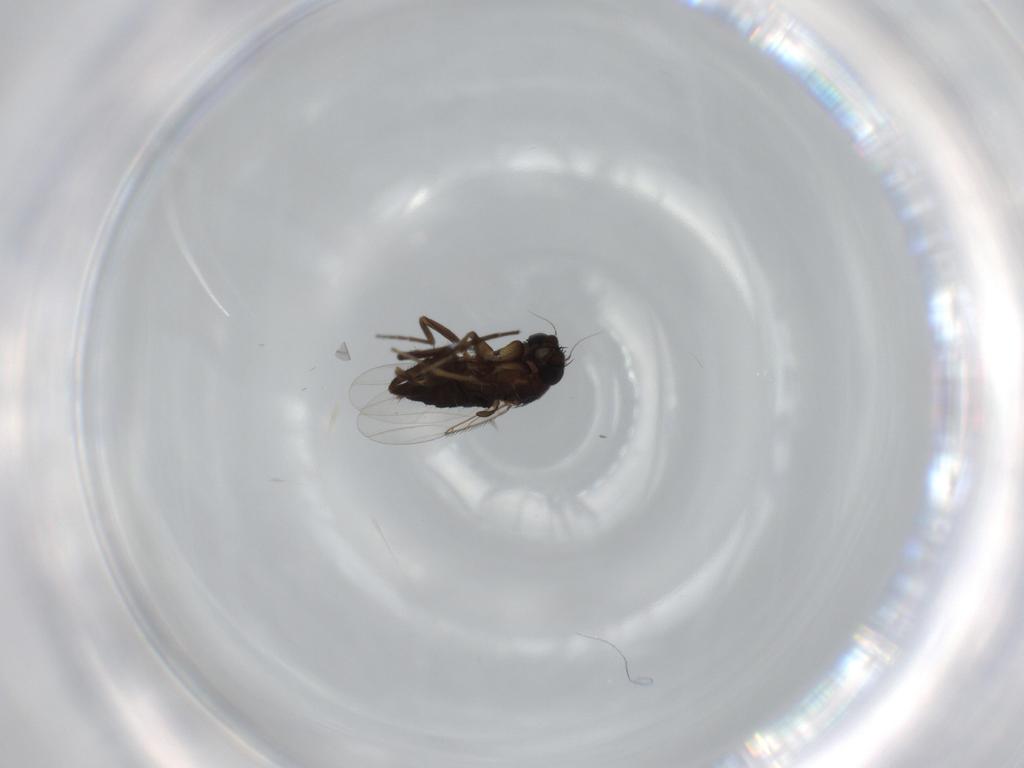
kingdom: Animalia
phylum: Arthropoda
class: Insecta
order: Diptera
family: Phoridae
